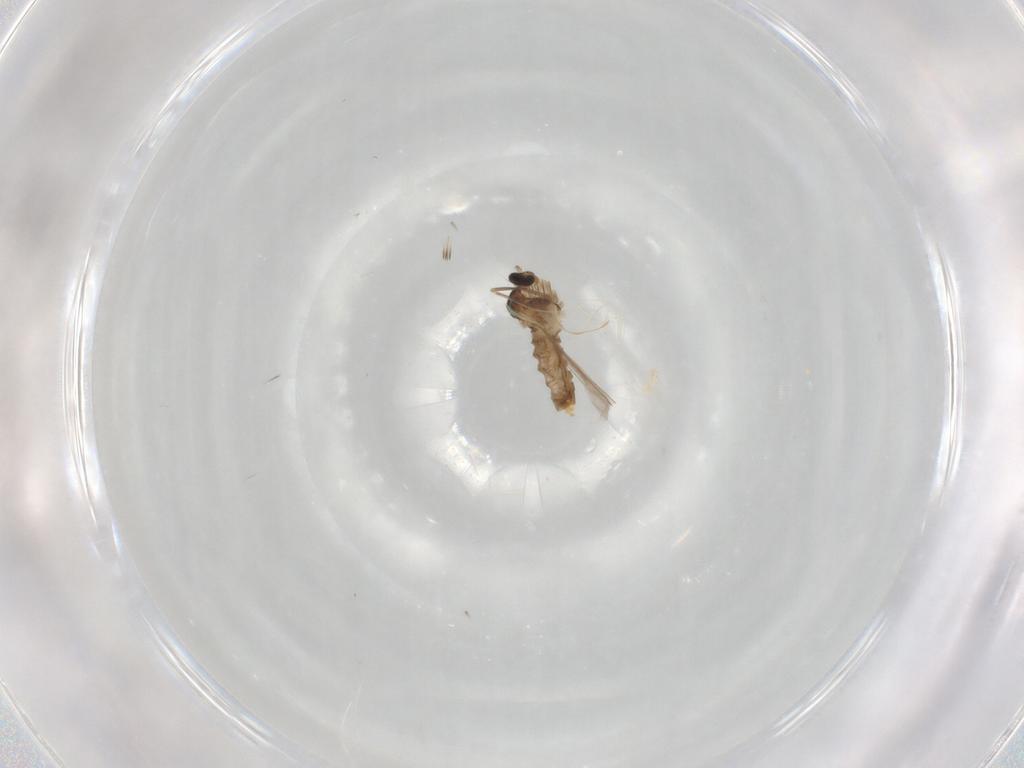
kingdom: Animalia
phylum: Arthropoda
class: Insecta
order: Diptera
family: Cecidomyiidae
